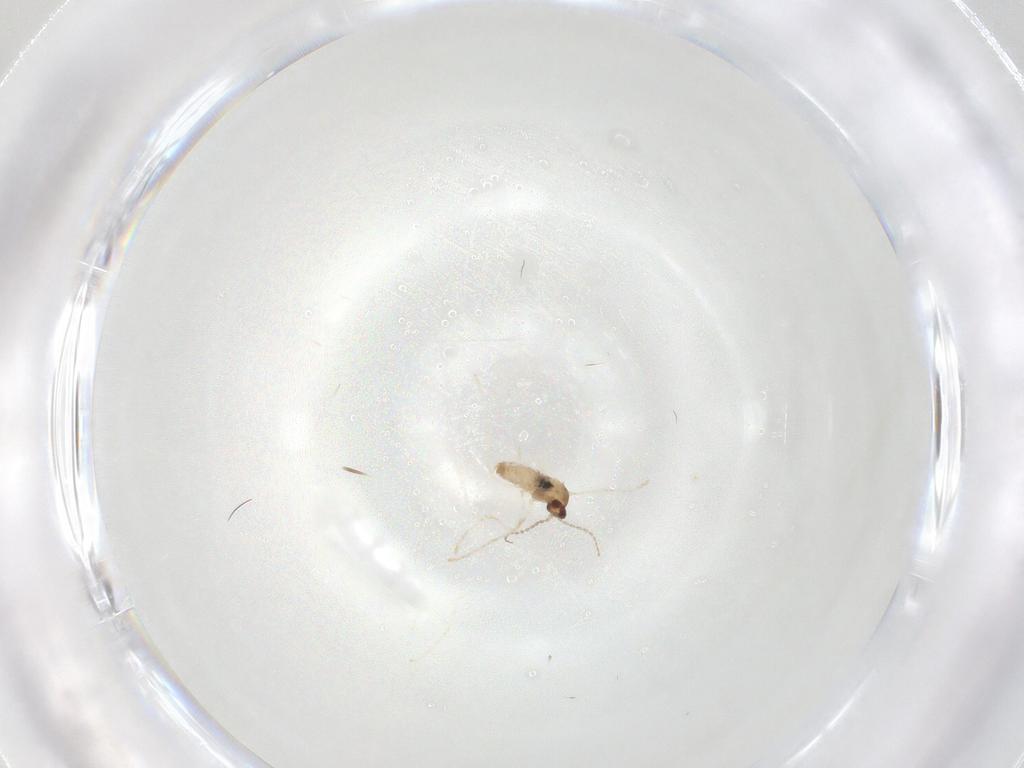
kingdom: Animalia
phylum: Arthropoda
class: Insecta
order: Diptera
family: Cecidomyiidae
